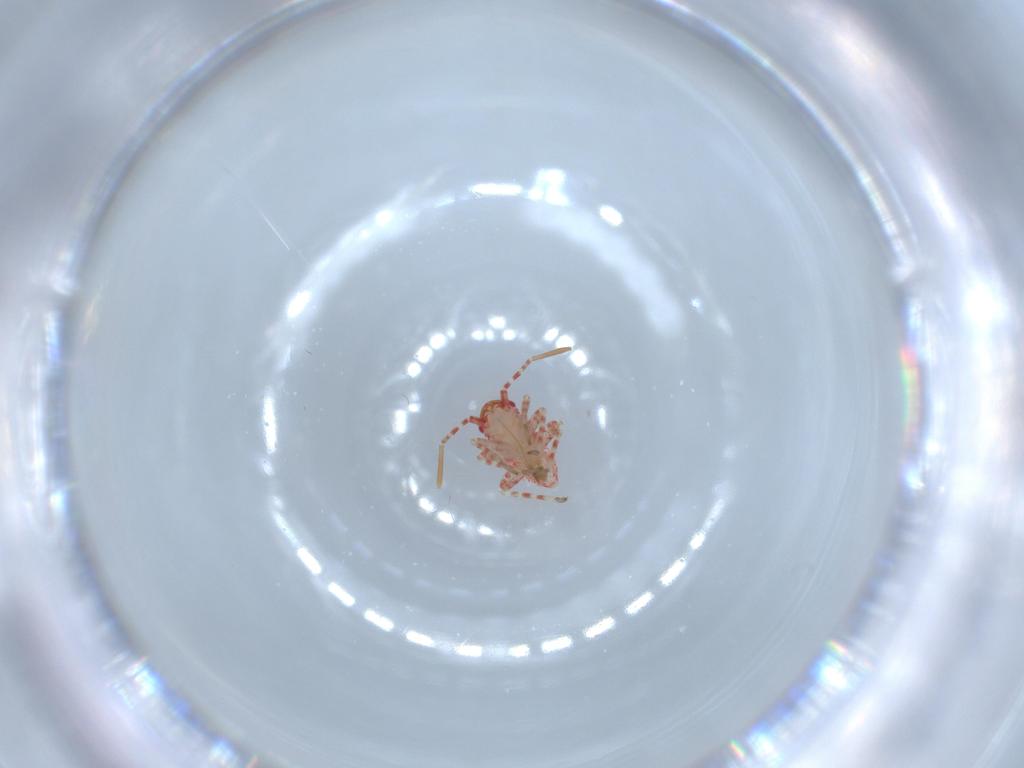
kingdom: Animalia
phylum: Arthropoda
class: Insecta
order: Hemiptera
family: Miridae
